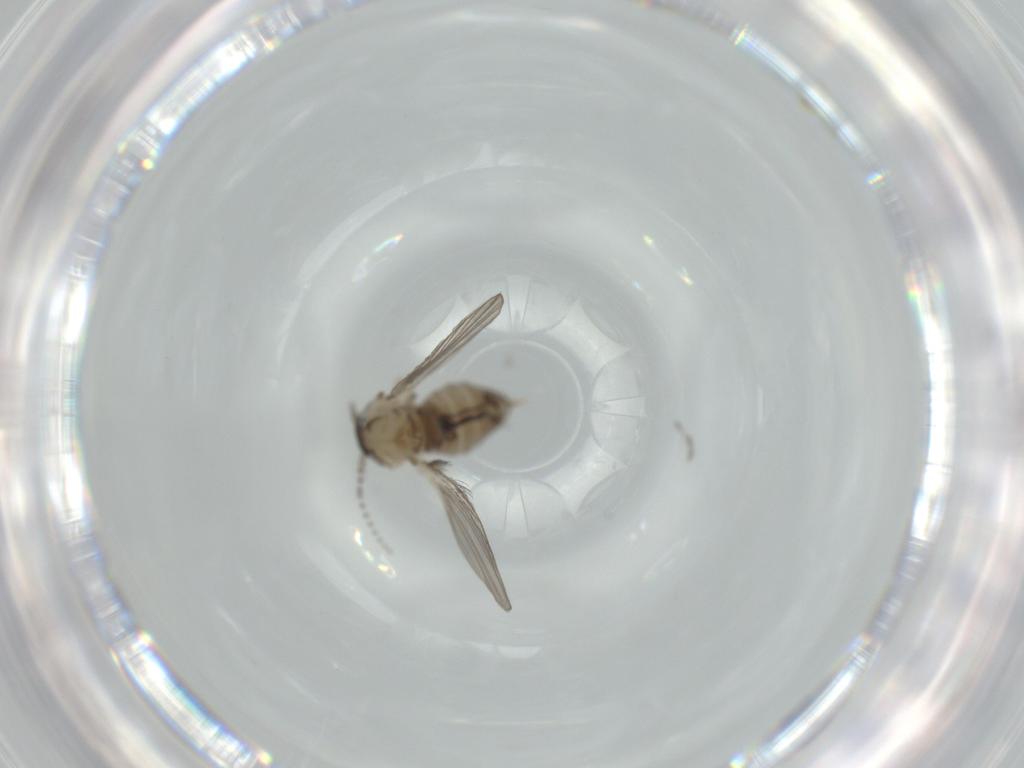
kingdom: Animalia
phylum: Arthropoda
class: Insecta
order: Diptera
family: Psychodidae
